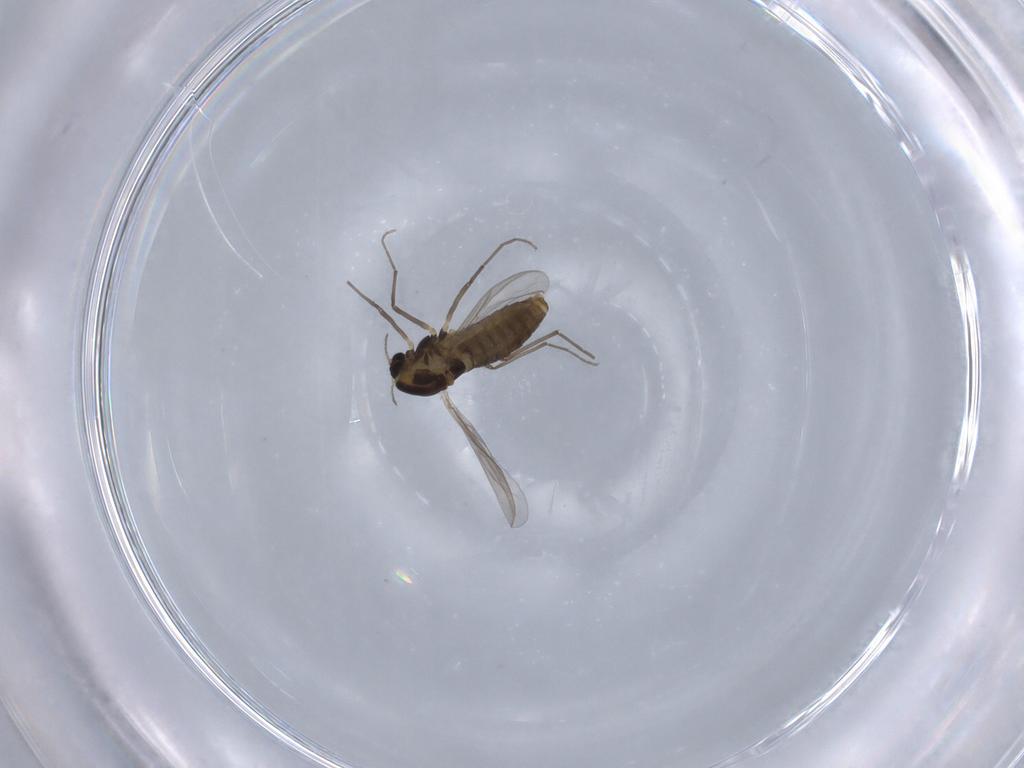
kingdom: Animalia
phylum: Arthropoda
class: Insecta
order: Diptera
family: Chironomidae
